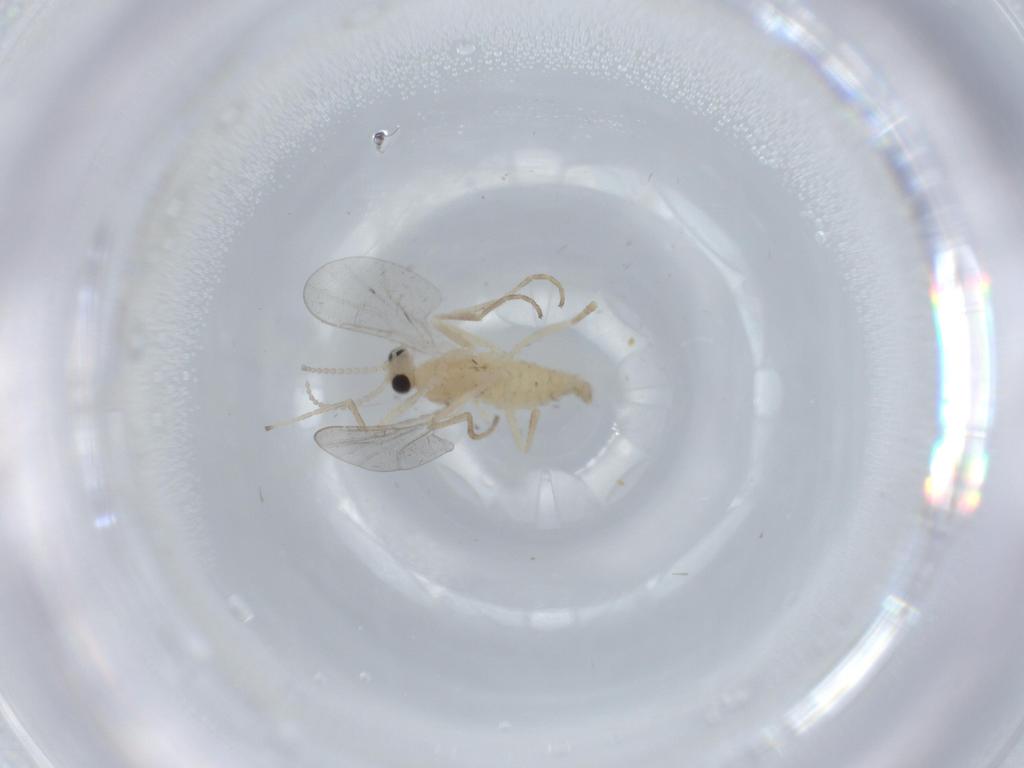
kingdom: Animalia
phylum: Arthropoda
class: Insecta
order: Diptera
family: Cecidomyiidae
